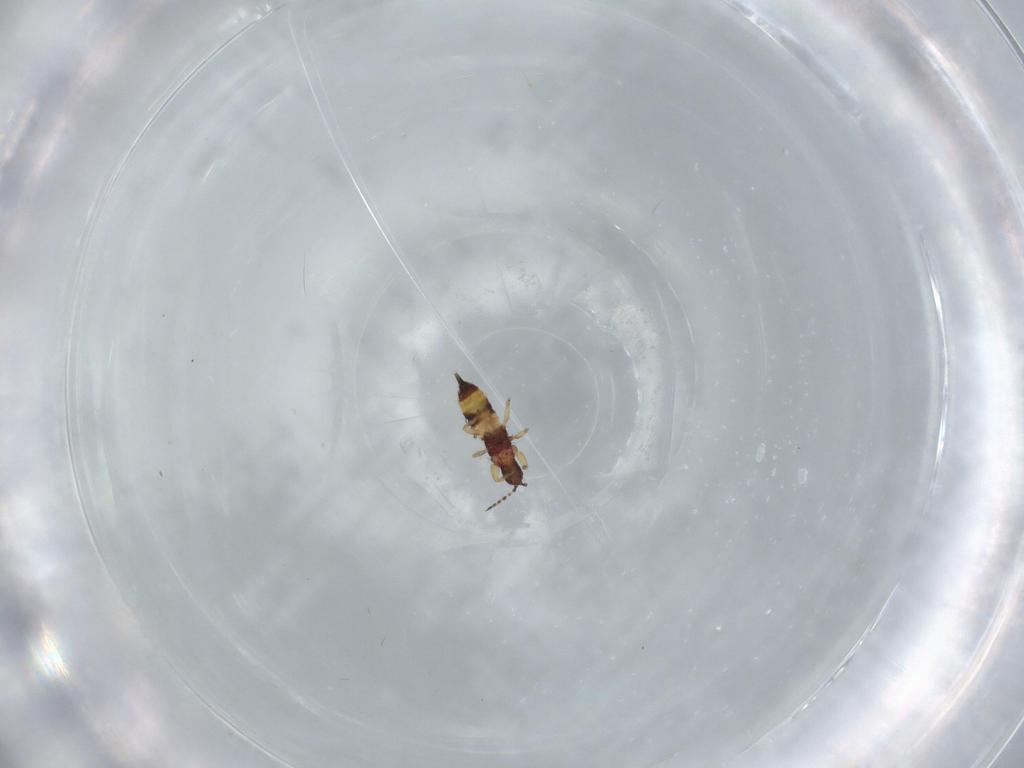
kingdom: Animalia
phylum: Arthropoda
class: Insecta
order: Thysanoptera
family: Phlaeothripidae
